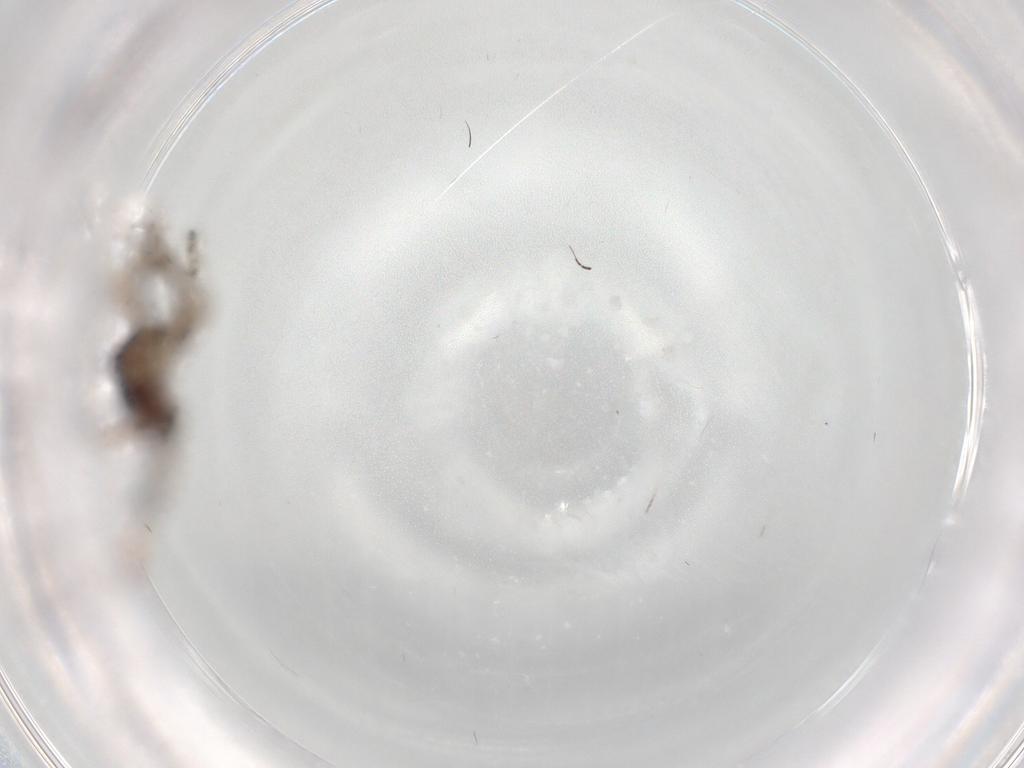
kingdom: Animalia
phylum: Arthropoda
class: Insecta
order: Hemiptera
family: Rhyparochromidae
